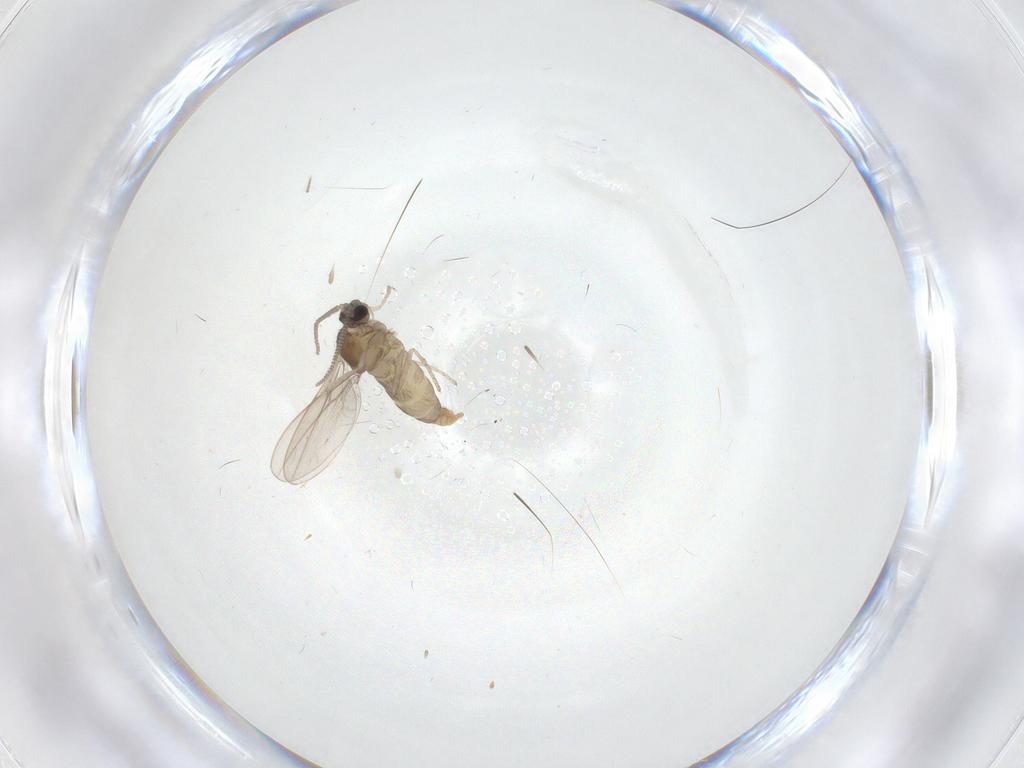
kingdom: Animalia
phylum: Arthropoda
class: Insecta
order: Diptera
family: Cecidomyiidae
